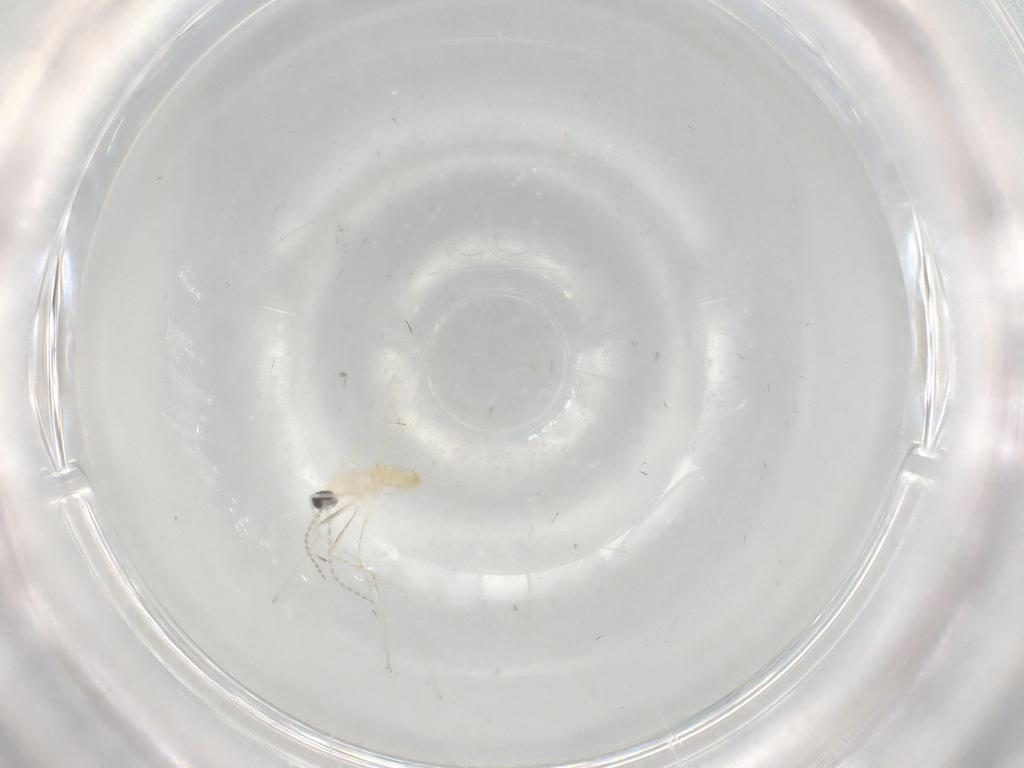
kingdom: Animalia
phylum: Arthropoda
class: Insecta
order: Diptera
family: Cecidomyiidae
